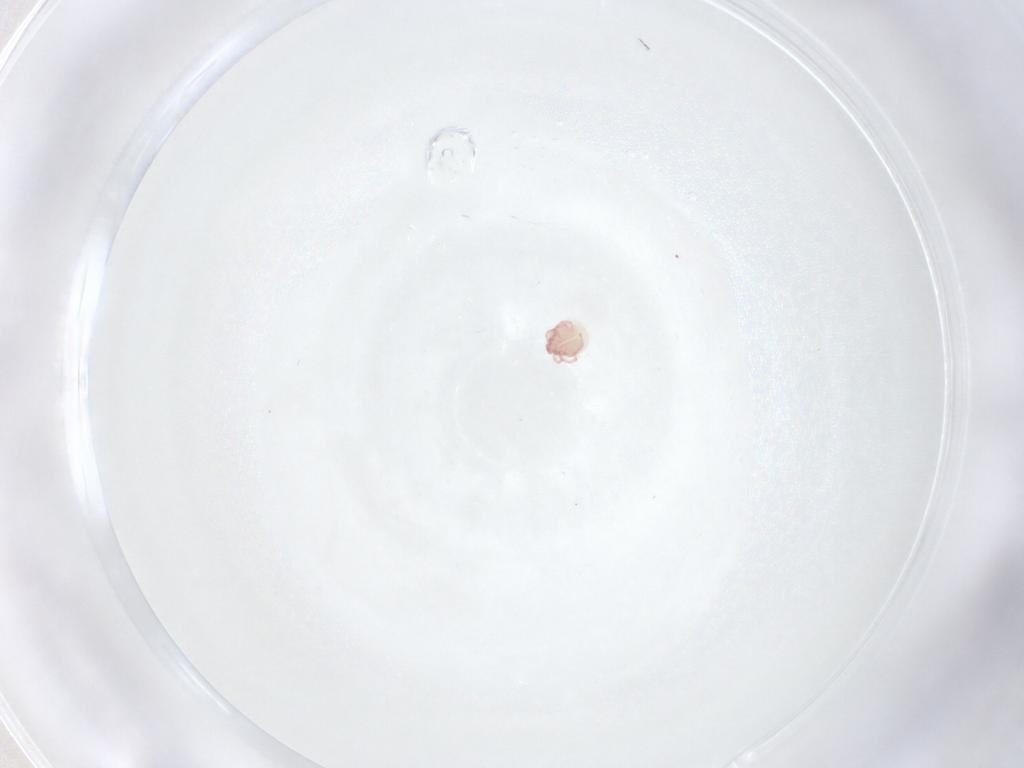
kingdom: Animalia
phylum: Arthropoda
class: Arachnida
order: Trombidiformes
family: Pionidae
